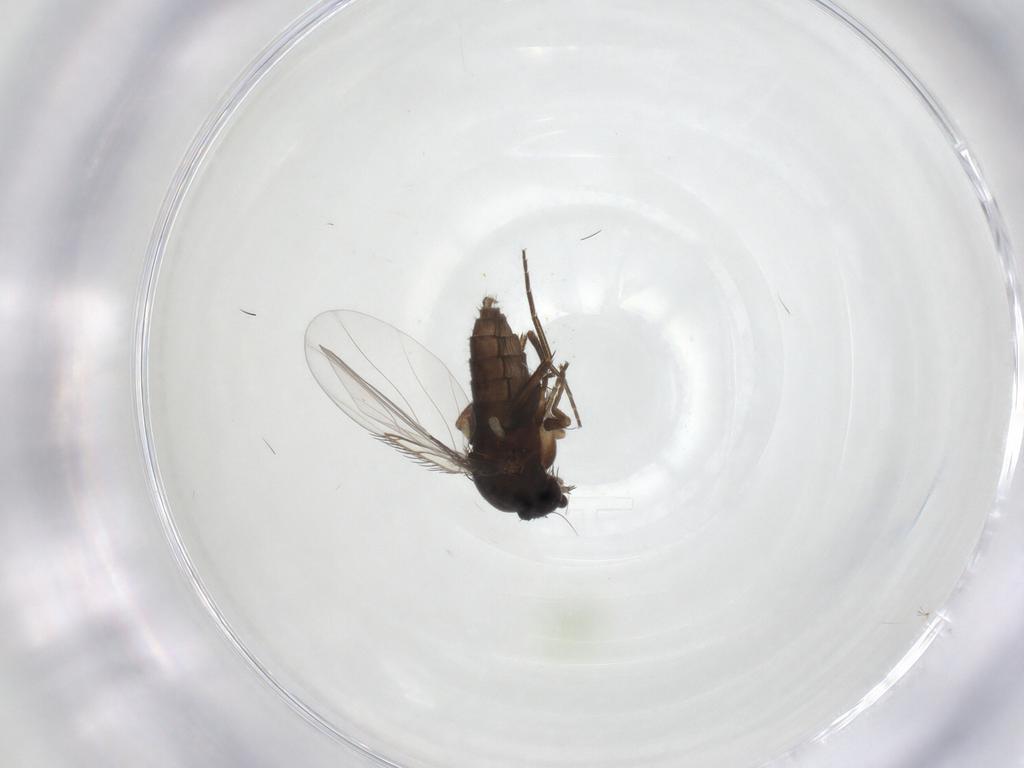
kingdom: Animalia
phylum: Arthropoda
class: Insecta
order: Diptera
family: Phoridae
